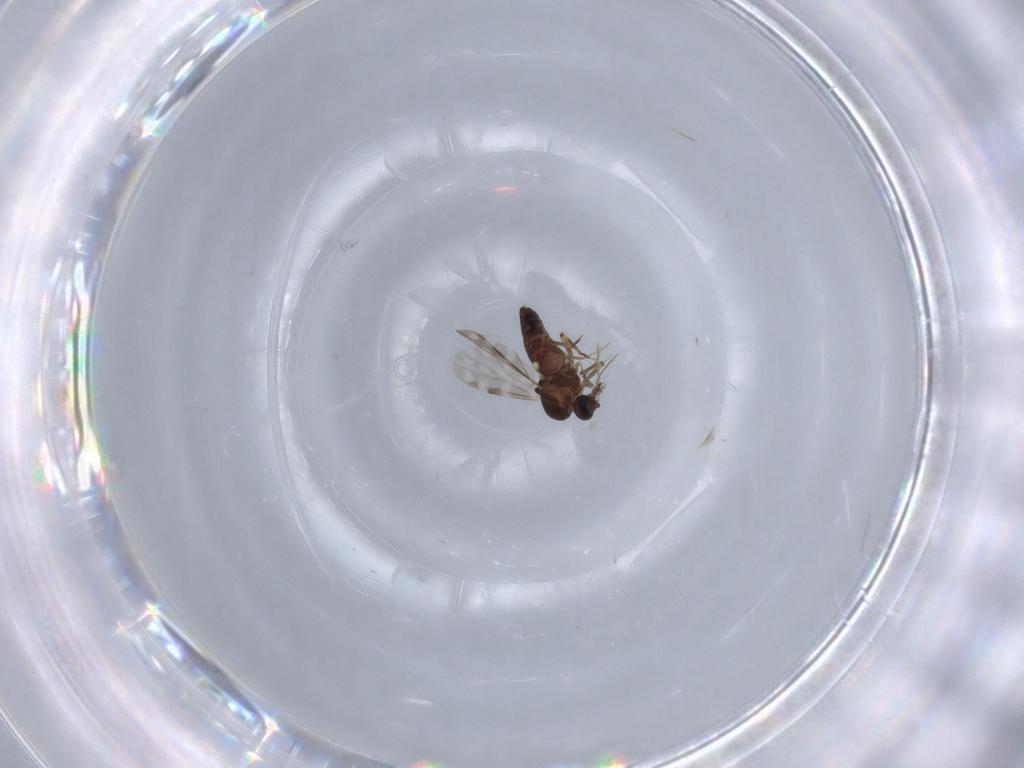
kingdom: Animalia
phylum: Arthropoda
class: Insecta
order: Diptera
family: Tachinidae
